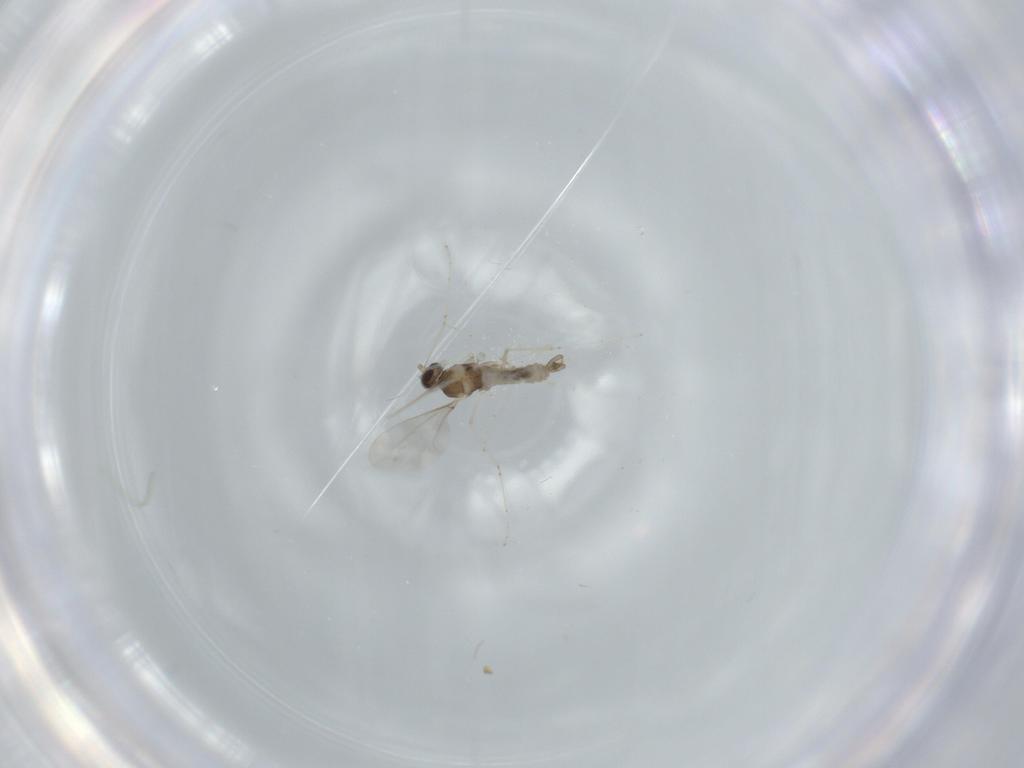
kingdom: Animalia
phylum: Arthropoda
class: Insecta
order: Diptera
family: Cecidomyiidae
